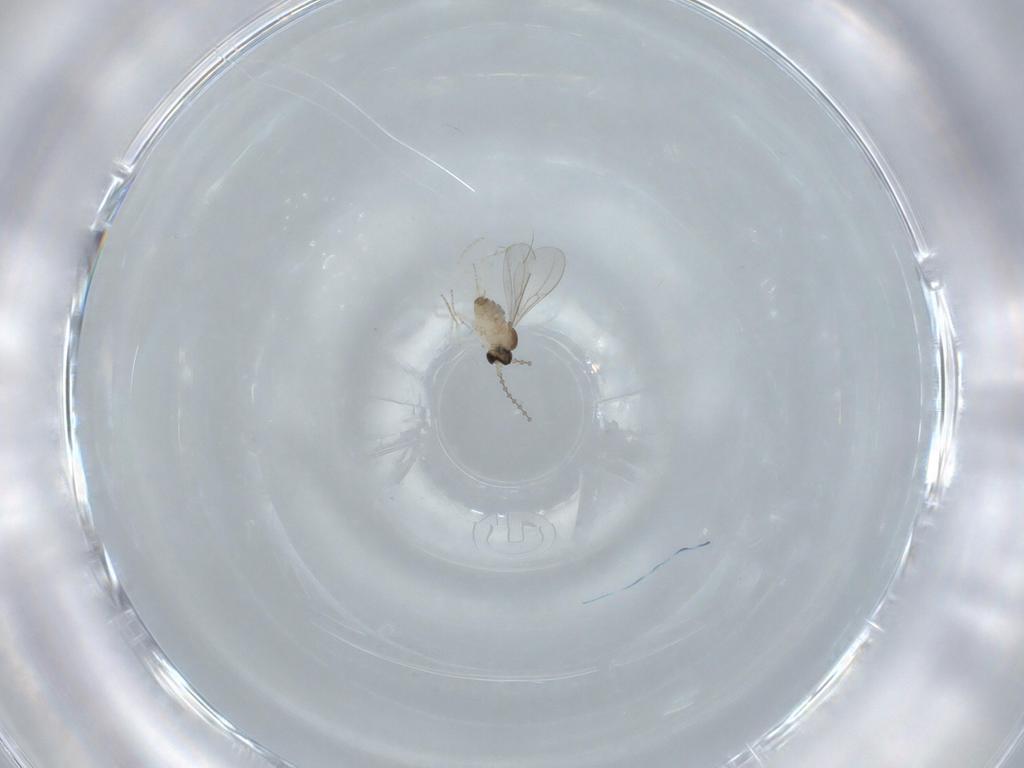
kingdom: Animalia
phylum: Arthropoda
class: Insecta
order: Diptera
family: Cecidomyiidae
